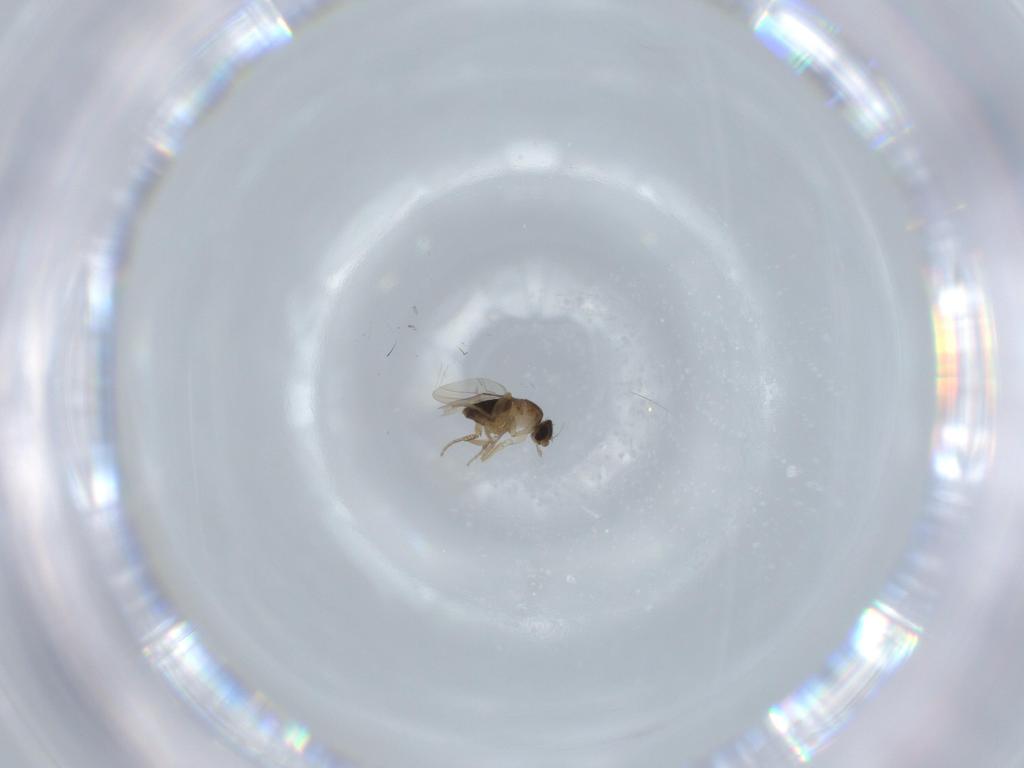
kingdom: Animalia
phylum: Arthropoda
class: Insecta
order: Diptera
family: Phoridae
